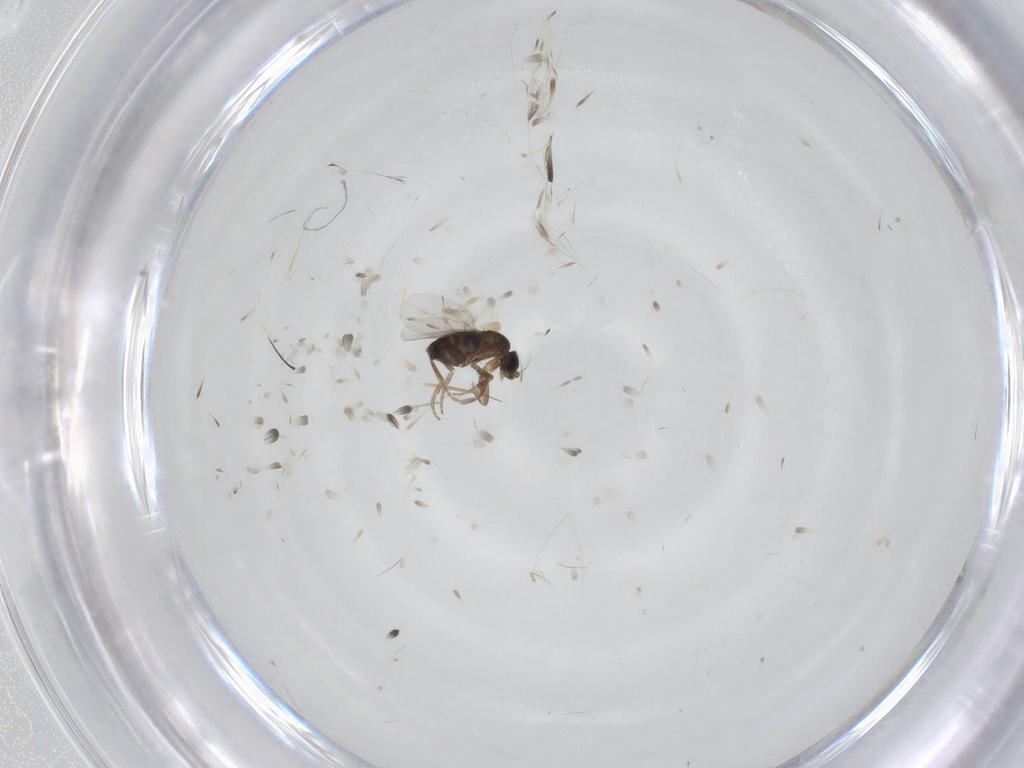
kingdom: Animalia
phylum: Arthropoda
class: Insecta
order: Diptera
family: Phoridae
